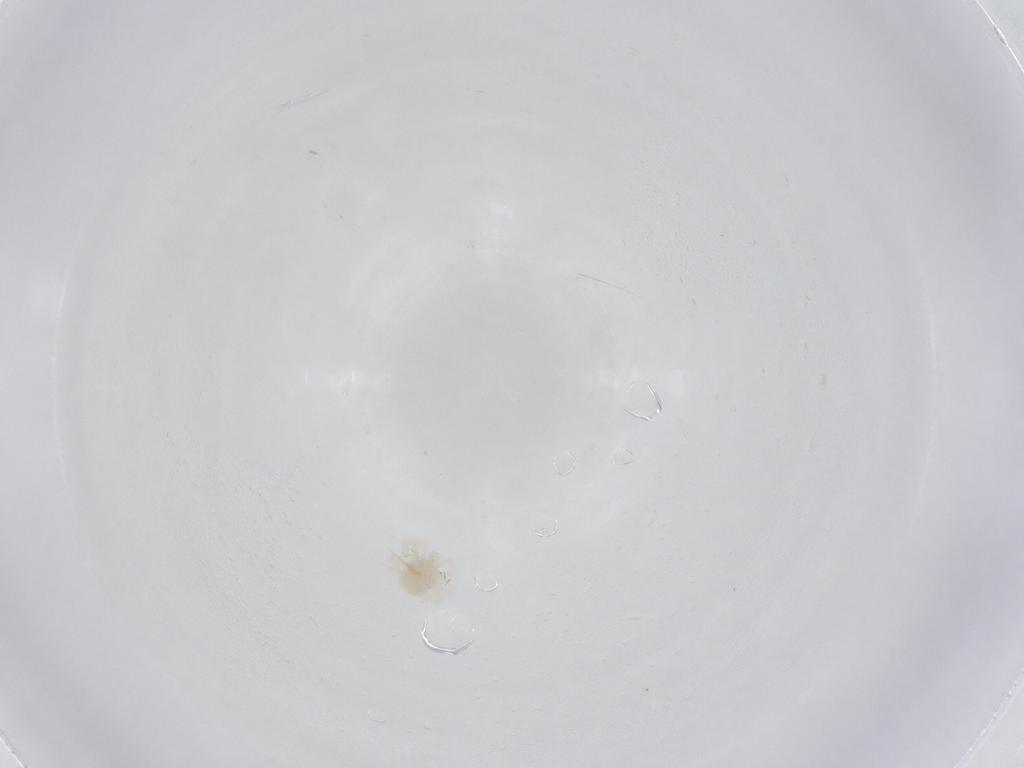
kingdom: Animalia
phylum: Arthropoda
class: Arachnida
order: Trombidiformes
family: Anystidae
